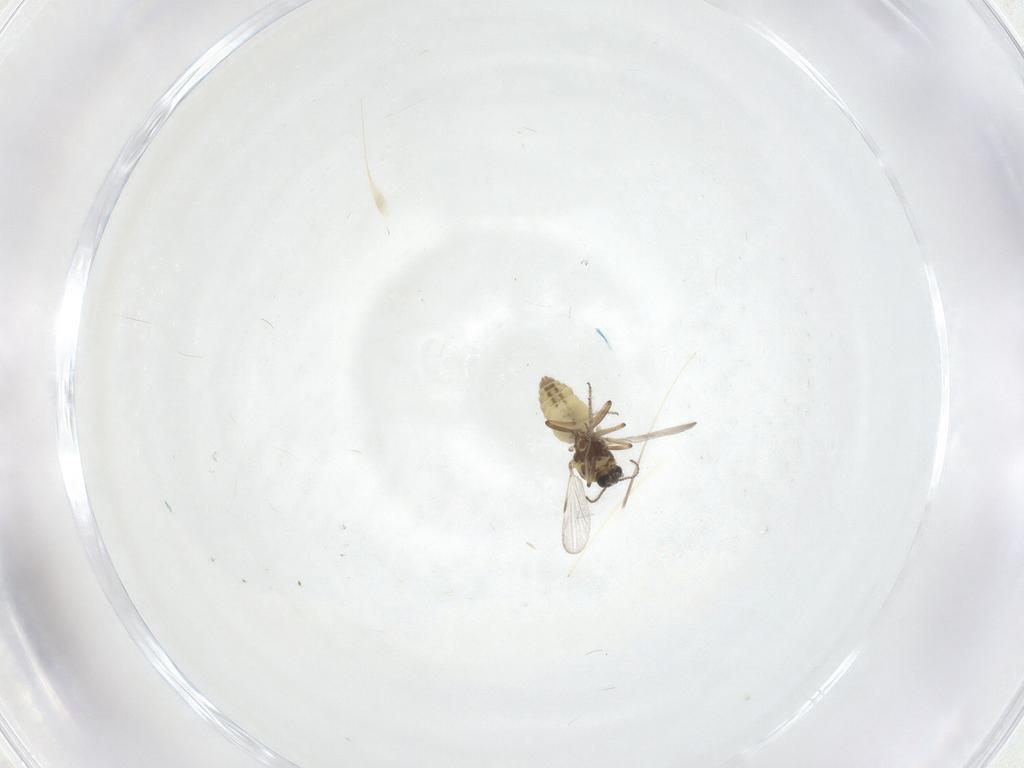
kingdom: Animalia
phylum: Arthropoda
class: Insecta
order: Diptera
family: Ceratopogonidae
